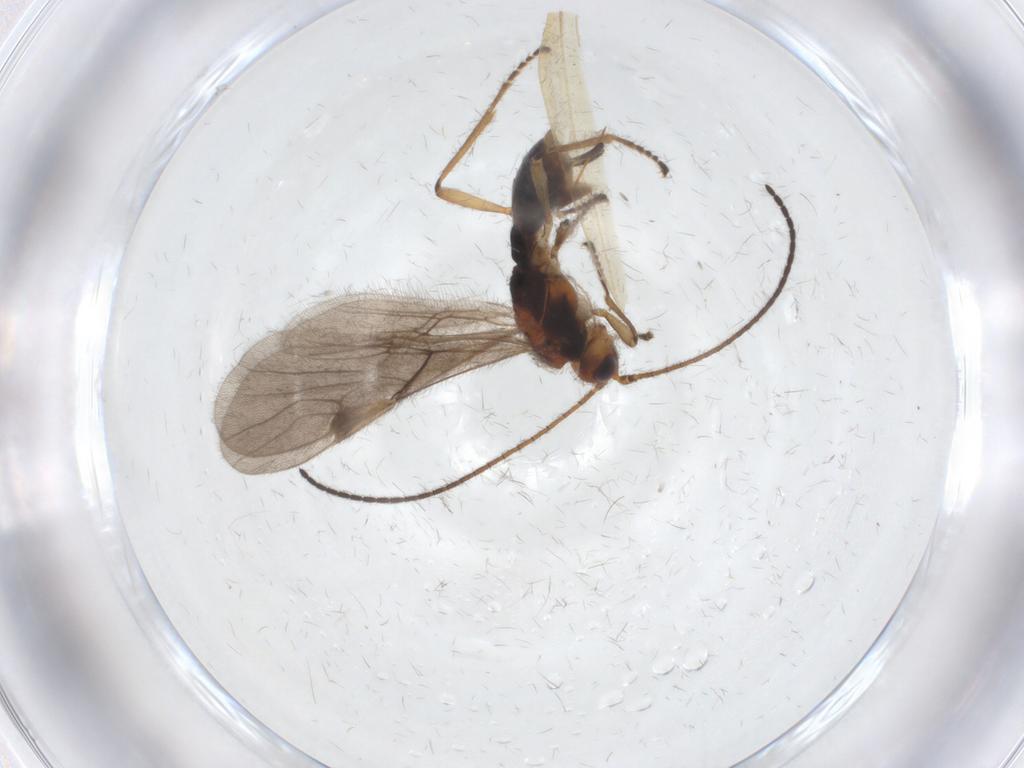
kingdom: Animalia
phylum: Arthropoda
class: Insecta
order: Hymenoptera
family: Braconidae
